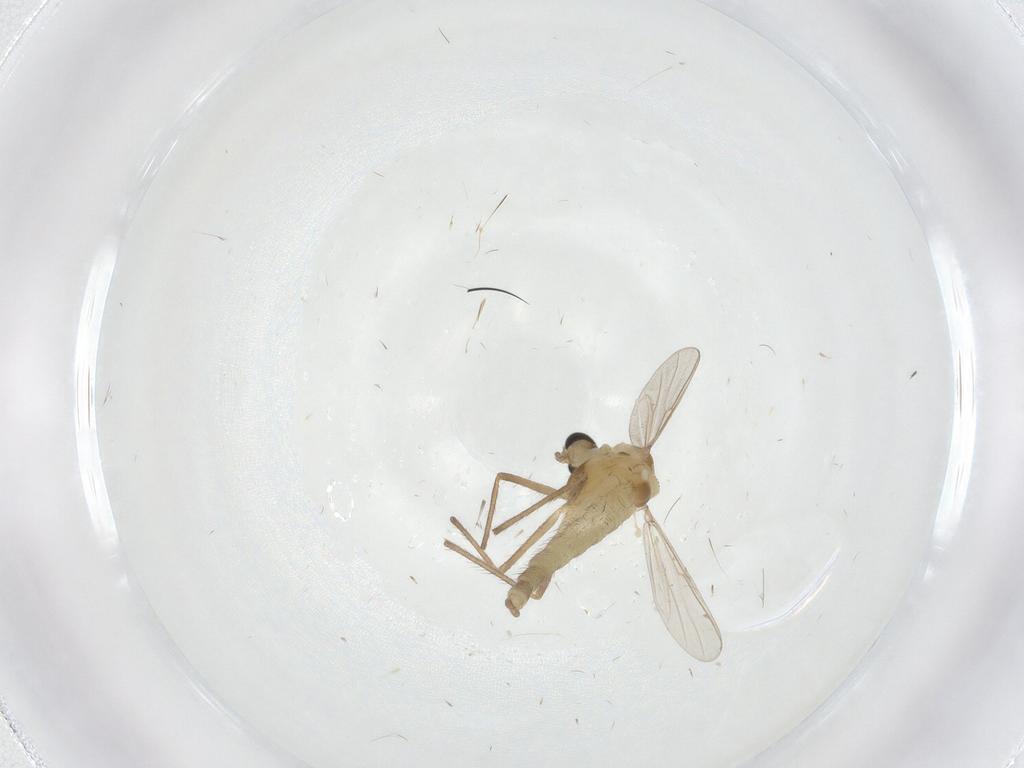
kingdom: Animalia
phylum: Arthropoda
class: Insecta
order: Diptera
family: Chironomidae
